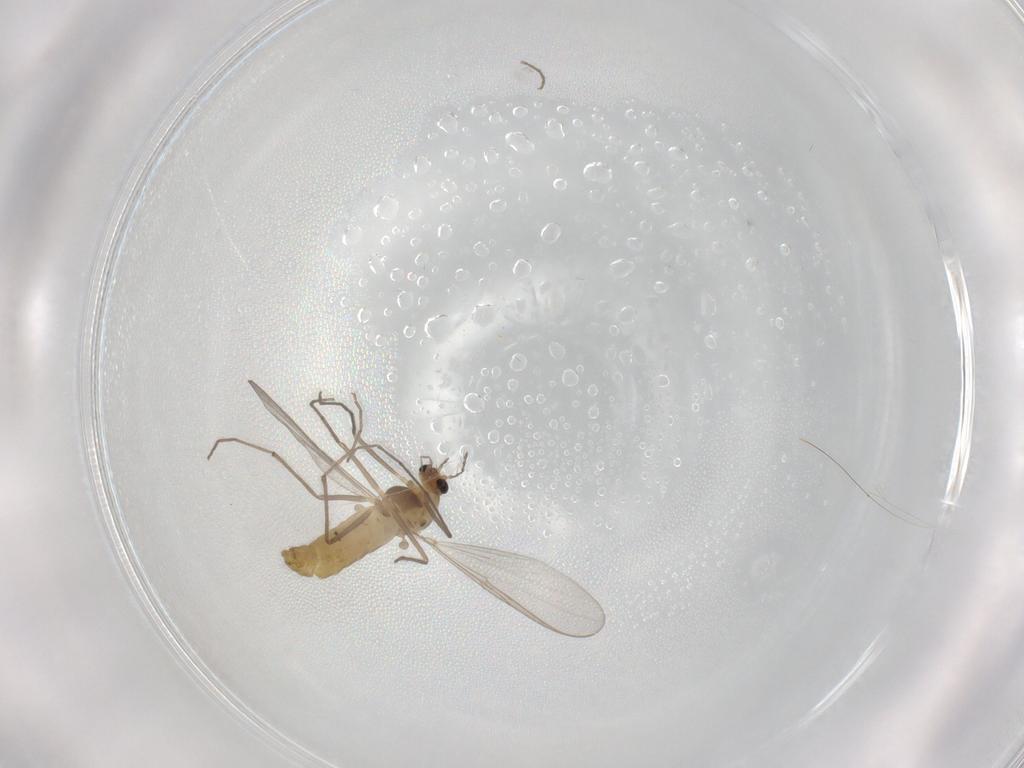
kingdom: Animalia
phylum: Arthropoda
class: Insecta
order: Diptera
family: Chironomidae
